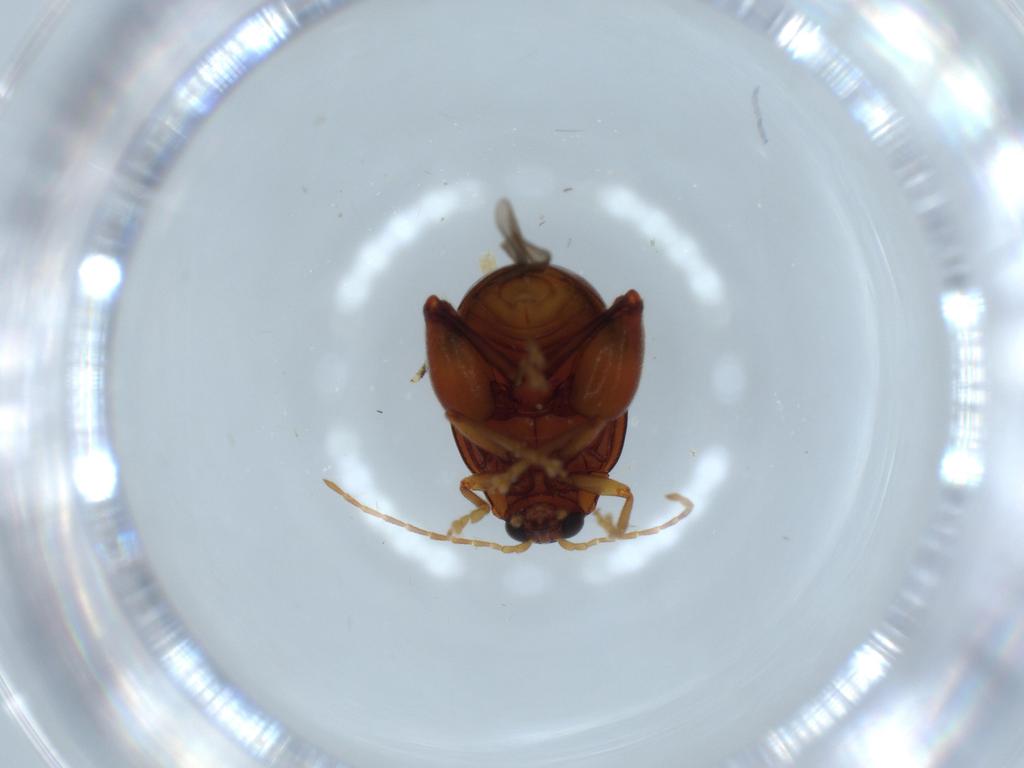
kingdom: Animalia
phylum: Arthropoda
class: Insecta
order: Coleoptera
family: Chrysomelidae
